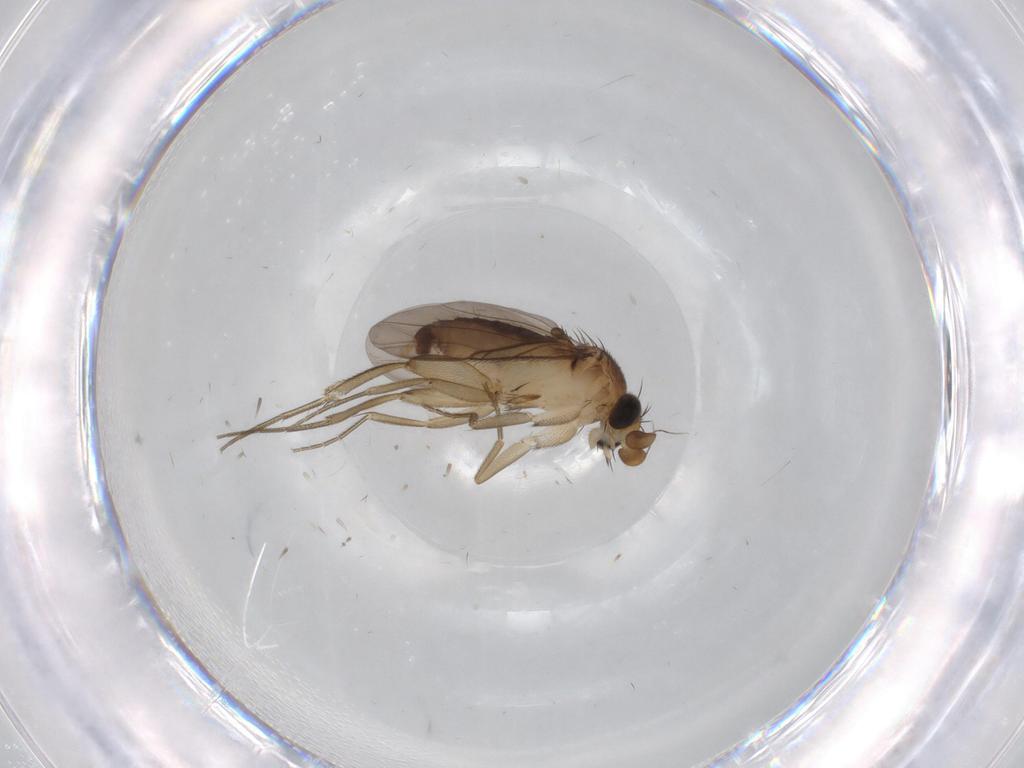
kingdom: Animalia
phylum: Arthropoda
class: Insecta
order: Diptera
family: Phoridae
